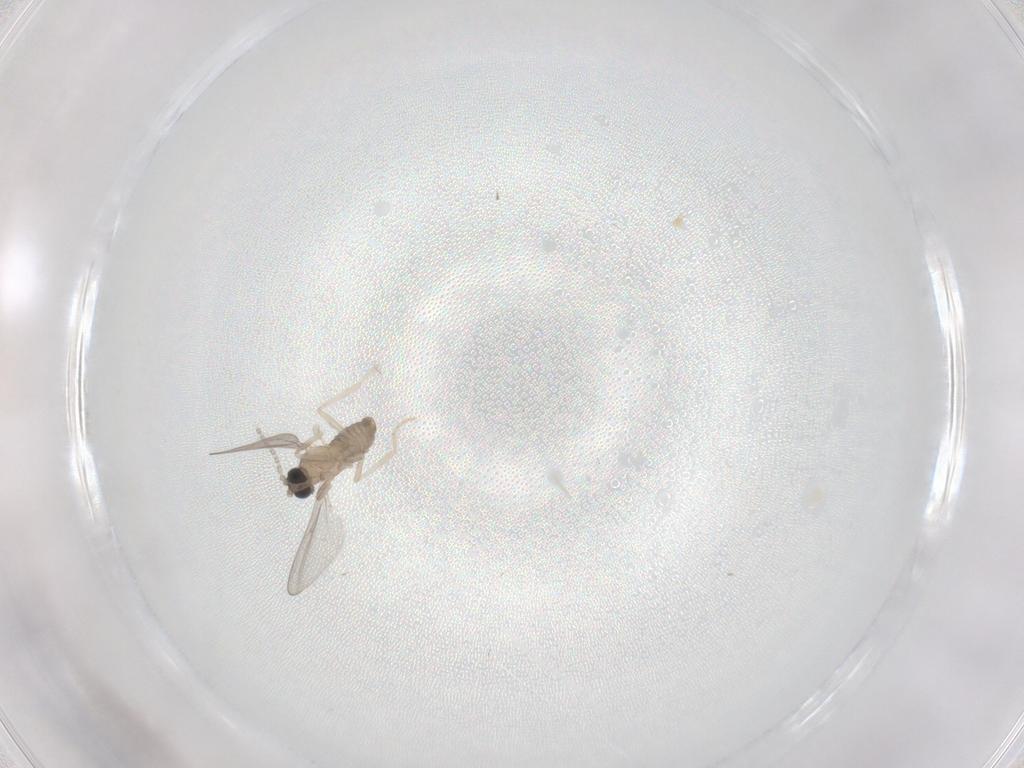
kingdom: Animalia
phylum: Arthropoda
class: Insecta
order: Diptera
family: Cecidomyiidae
